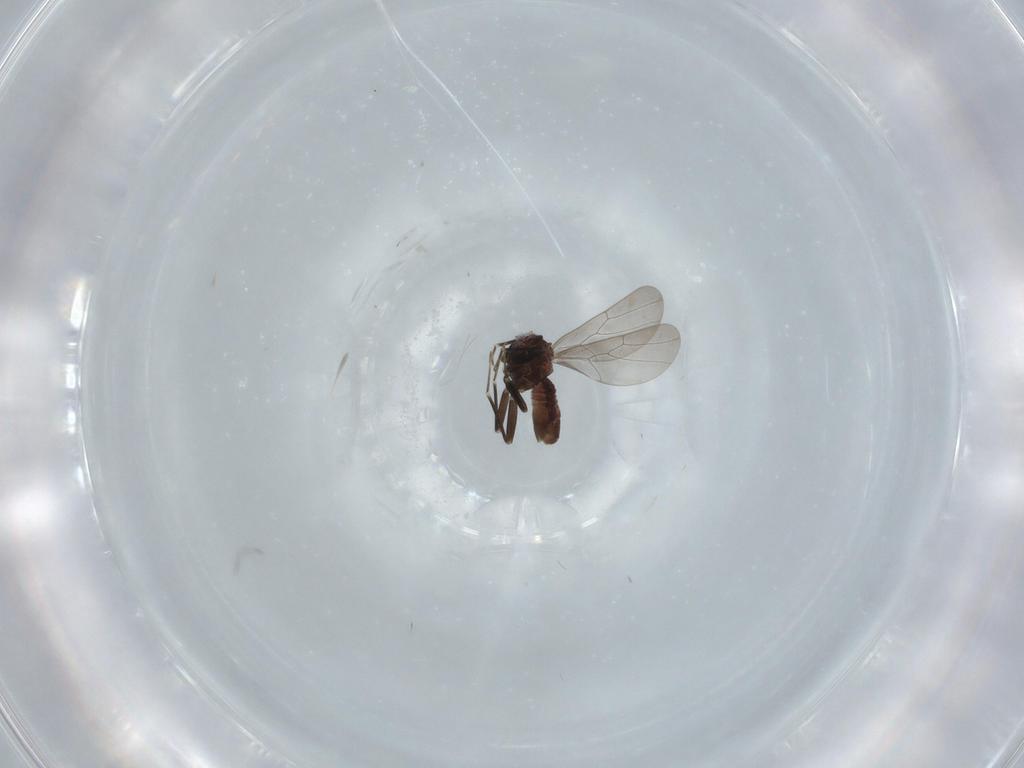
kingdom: Animalia
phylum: Arthropoda
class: Insecta
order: Psocodea
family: Lepidopsocidae
